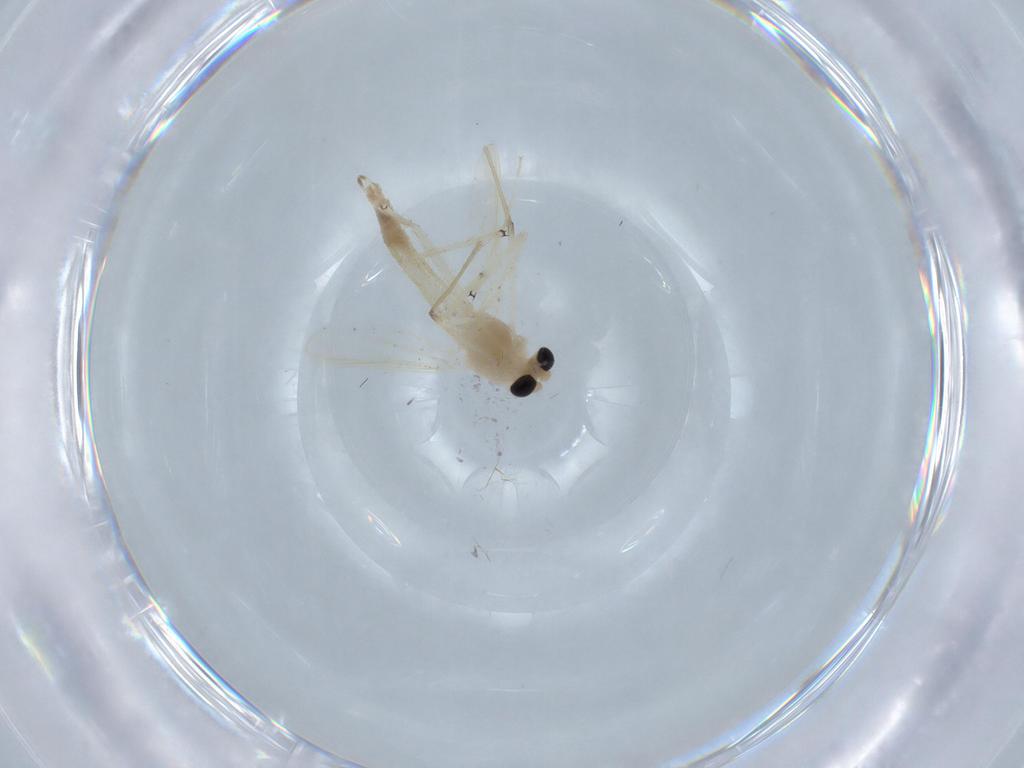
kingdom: Animalia
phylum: Arthropoda
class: Insecta
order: Diptera
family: Chironomidae
